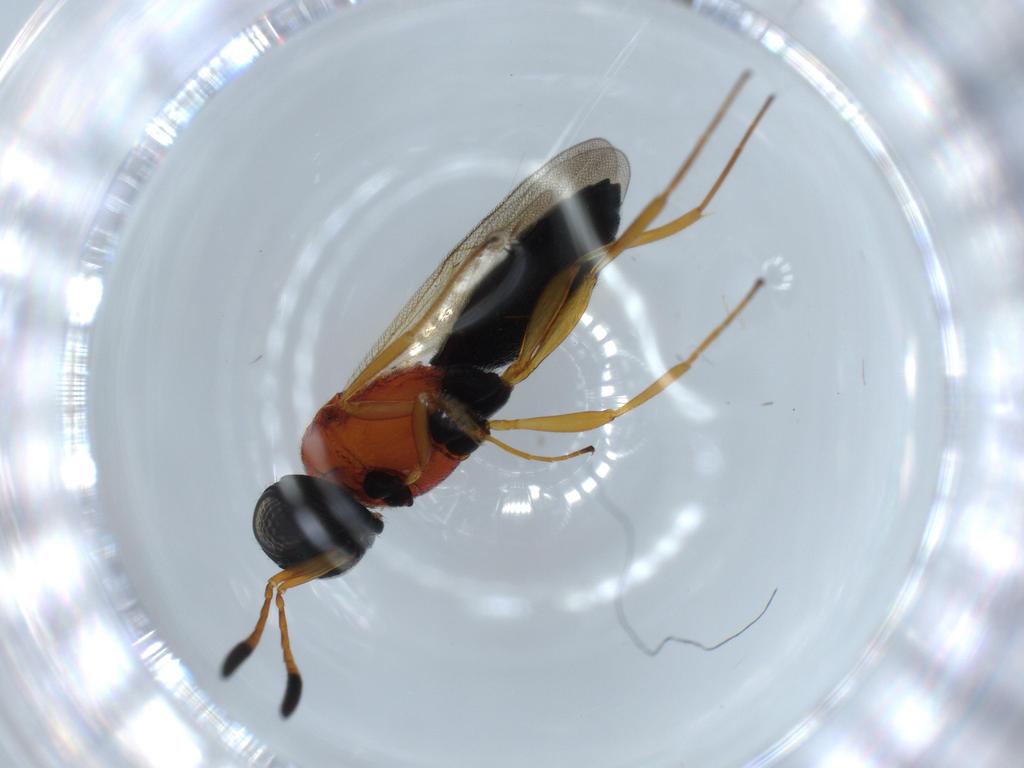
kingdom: Animalia
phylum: Arthropoda
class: Insecta
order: Hymenoptera
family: Scelionidae
